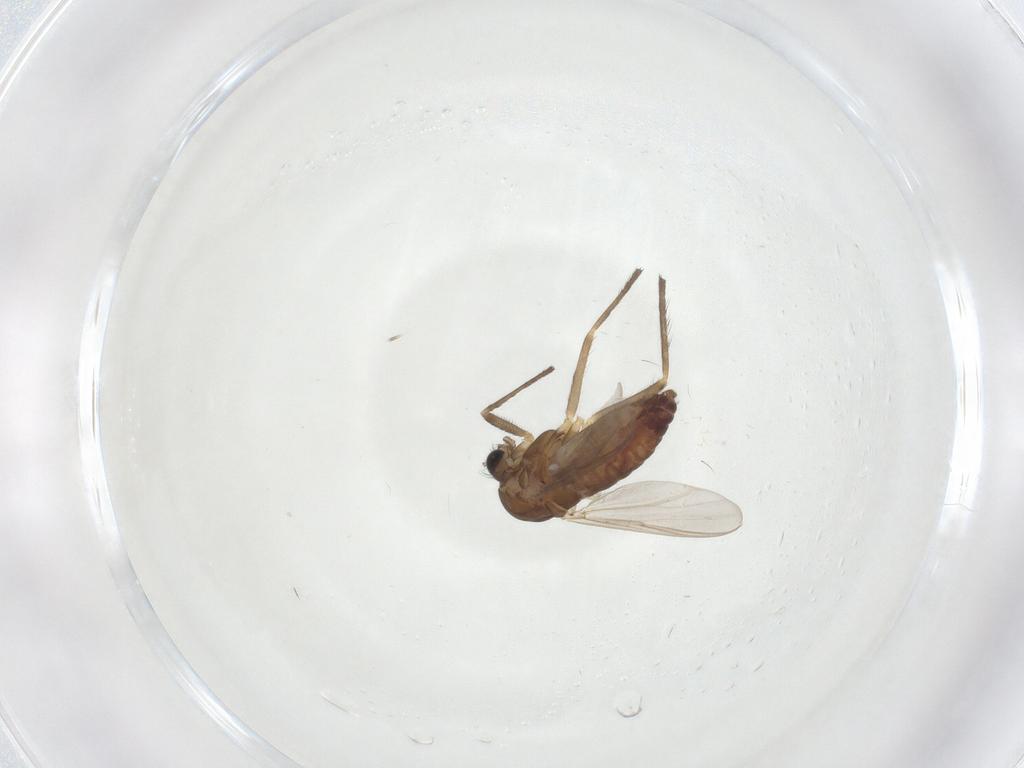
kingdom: Animalia
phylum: Arthropoda
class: Insecta
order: Diptera
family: Chironomidae
